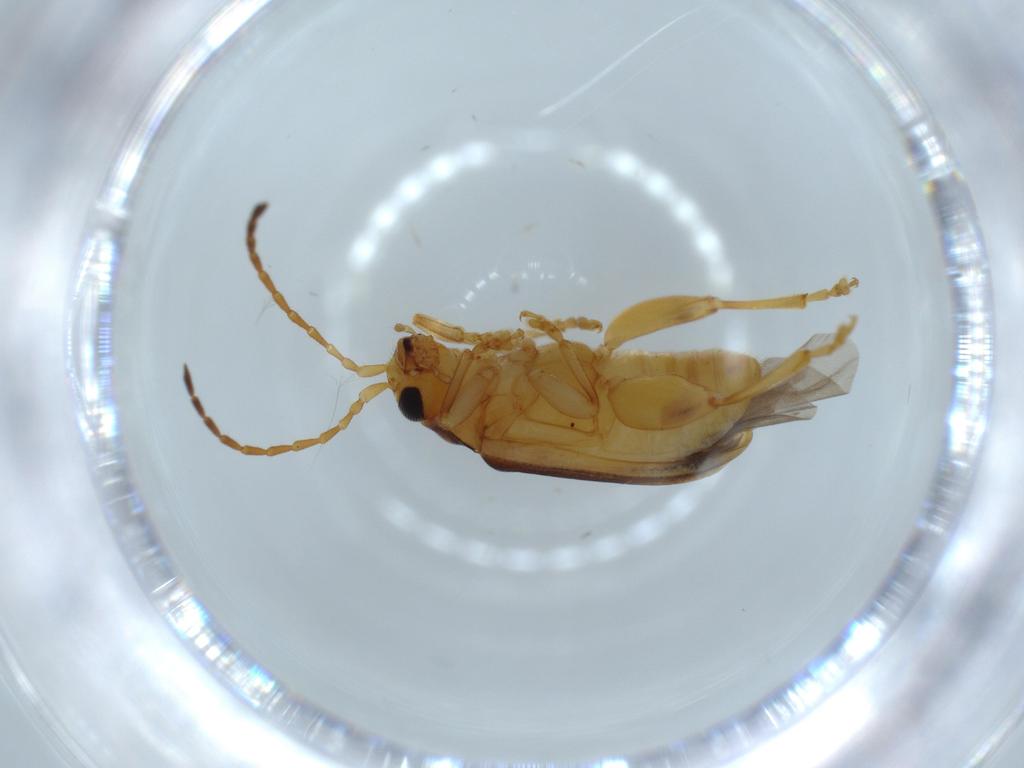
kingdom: Animalia
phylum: Arthropoda
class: Insecta
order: Coleoptera
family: Chrysomelidae
